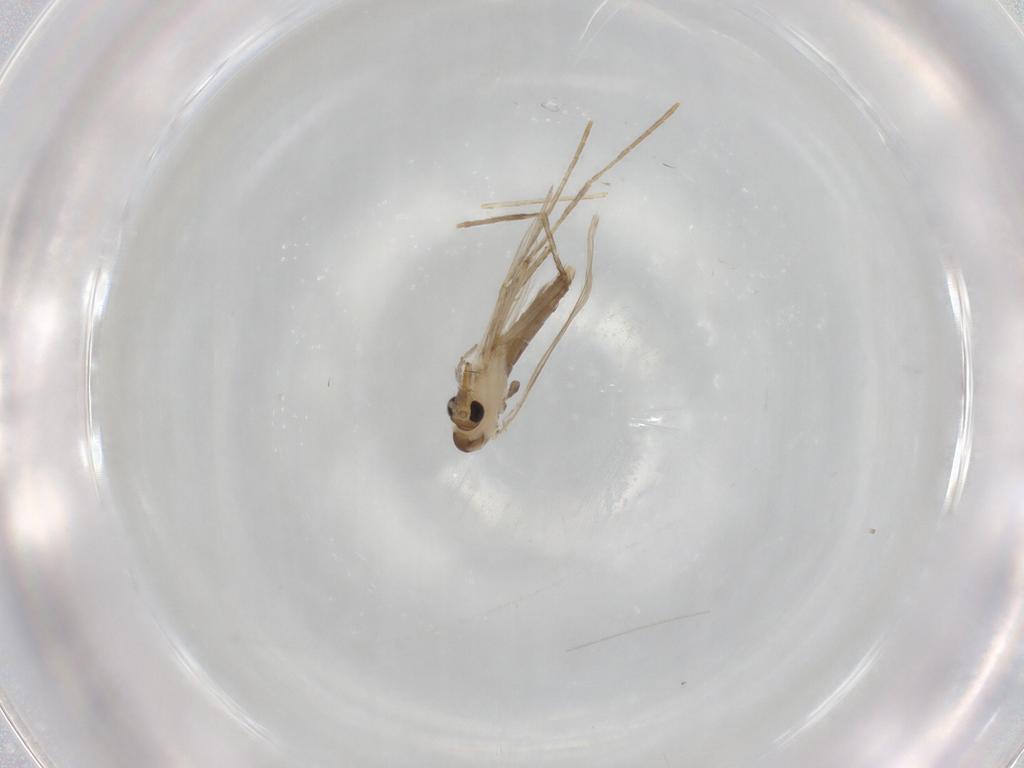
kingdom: Animalia
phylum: Arthropoda
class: Insecta
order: Diptera
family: Psychodidae
